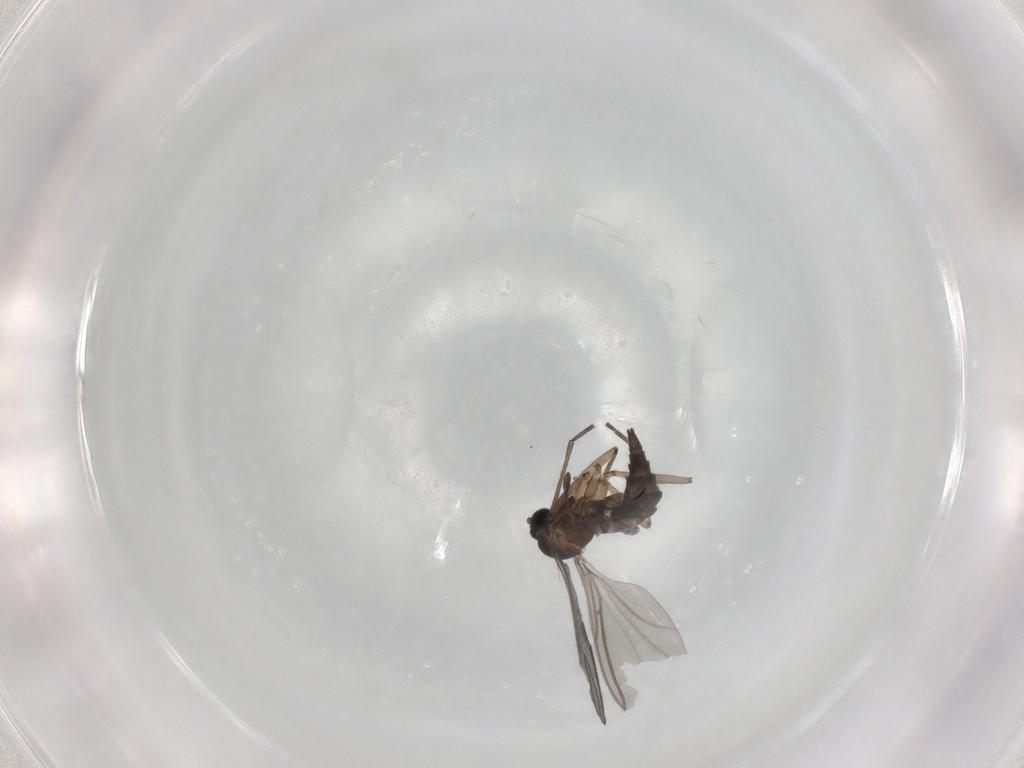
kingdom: Animalia
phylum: Arthropoda
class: Insecta
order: Diptera
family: Sciaridae
